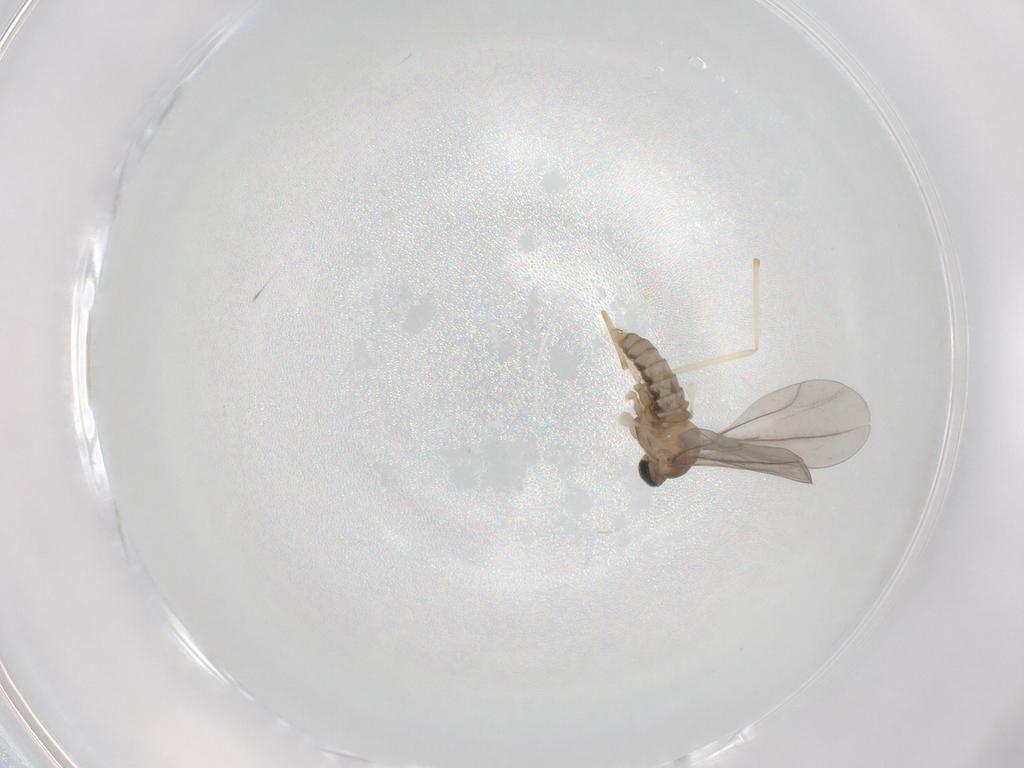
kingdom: Animalia
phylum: Arthropoda
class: Insecta
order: Diptera
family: Cecidomyiidae
